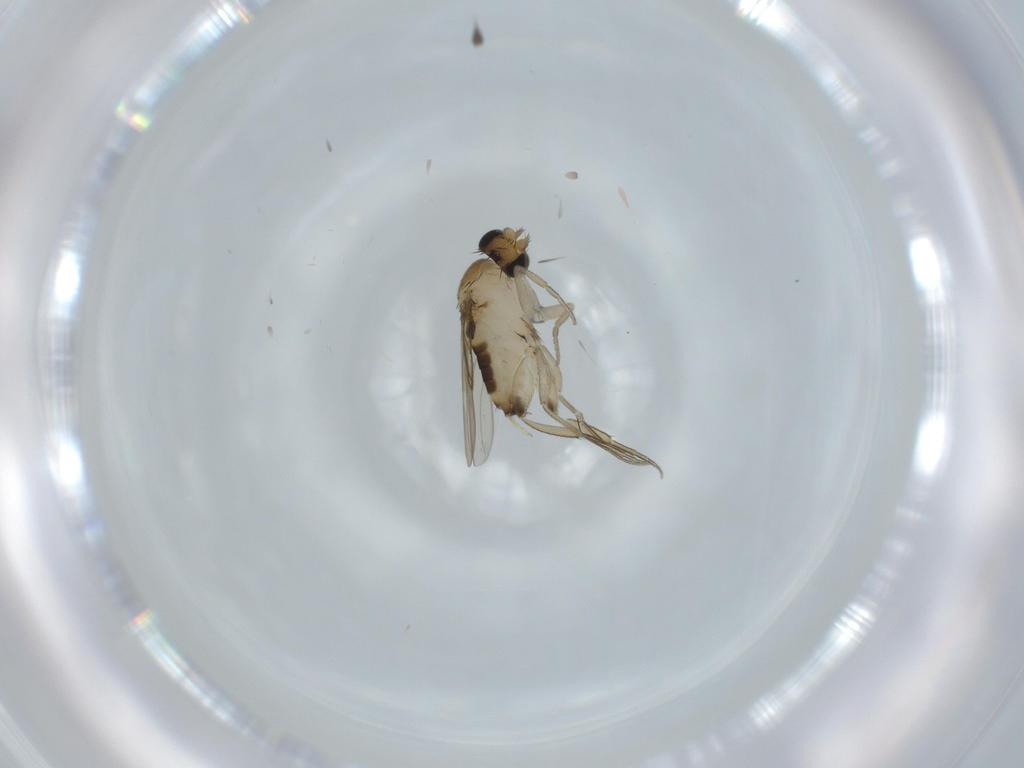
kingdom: Animalia
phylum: Arthropoda
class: Insecta
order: Diptera
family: Phoridae
